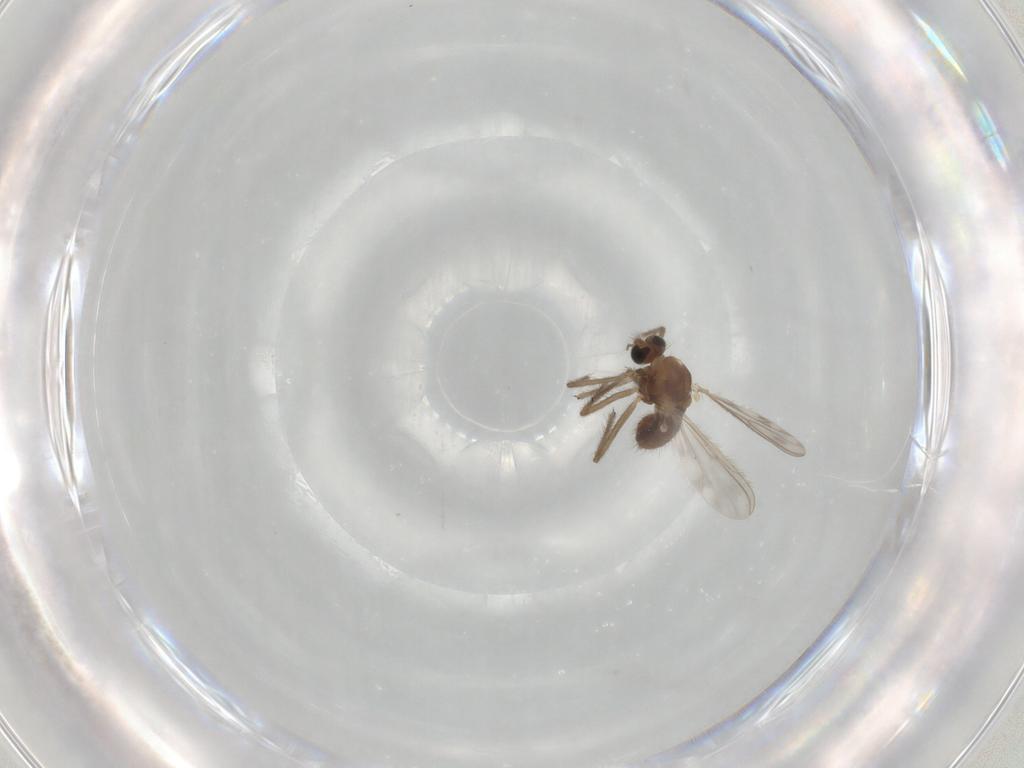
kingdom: Animalia
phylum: Arthropoda
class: Insecta
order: Diptera
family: Chironomidae
